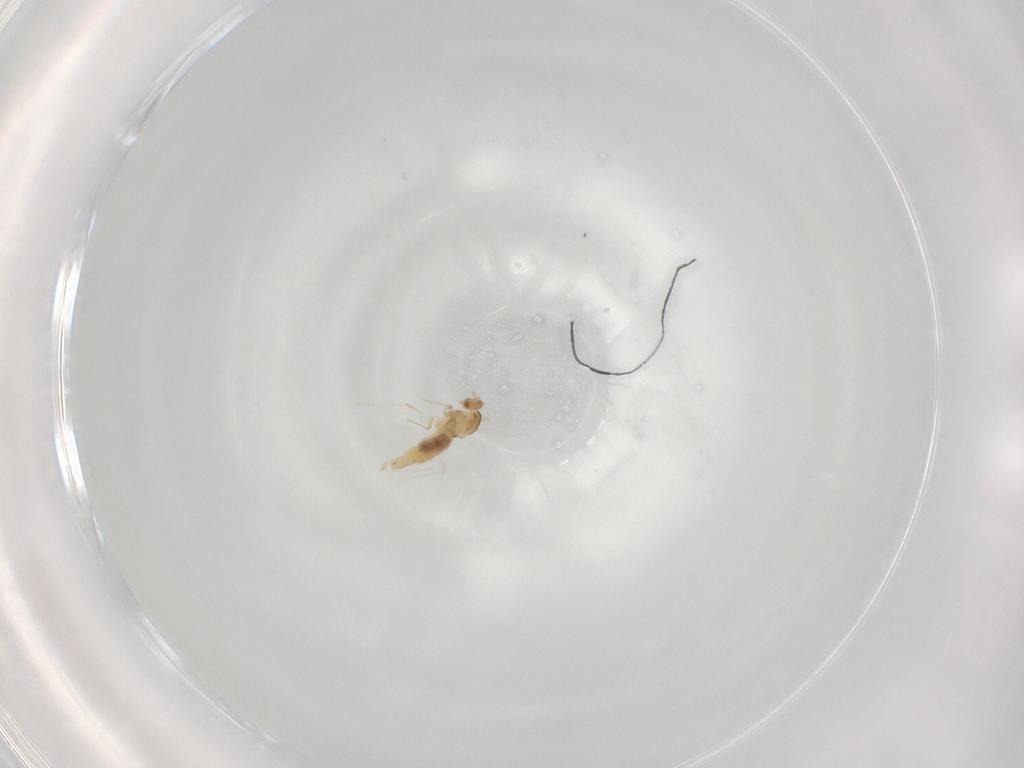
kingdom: Animalia
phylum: Arthropoda
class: Insecta
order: Diptera
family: Cecidomyiidae
